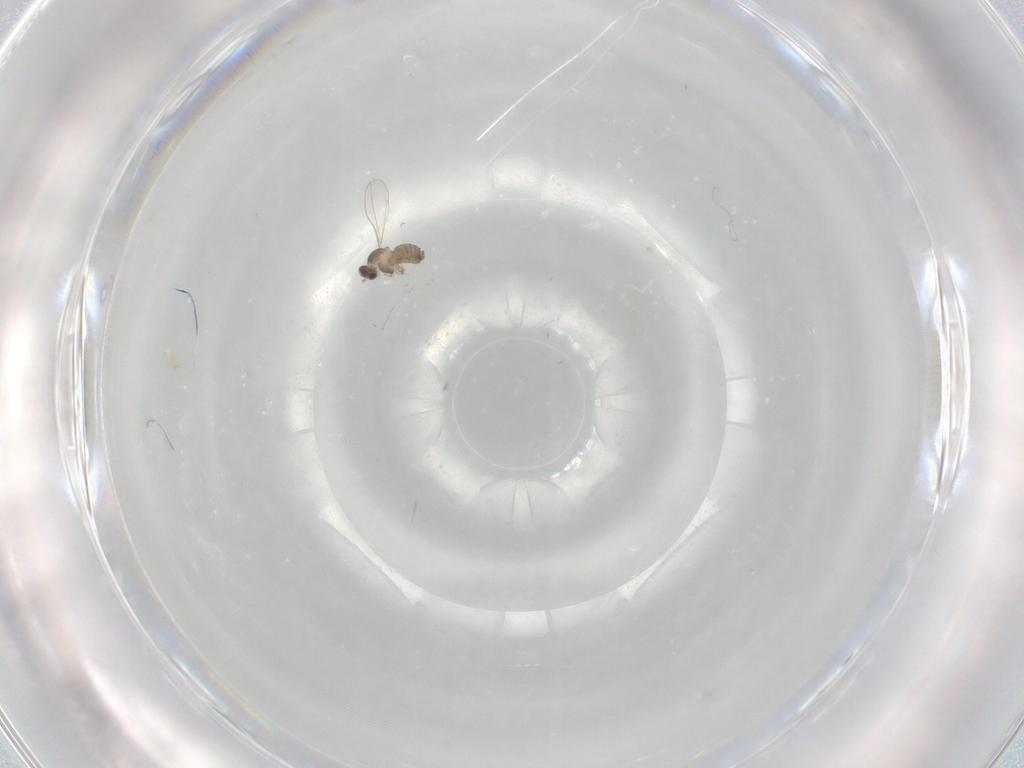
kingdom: Animalia
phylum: Arthropoda
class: Insecta
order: Diptera
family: Cecidomyiidae
